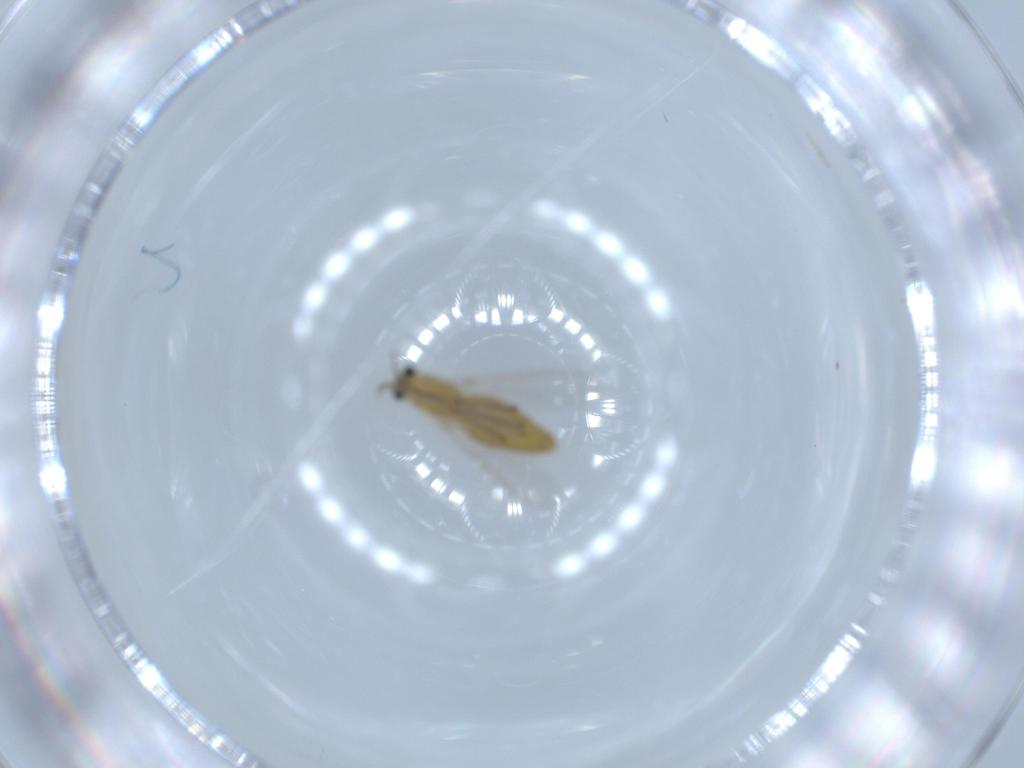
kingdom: Animalia
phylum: Arthropoda
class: Insecta
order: Diptera
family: Chironomidae
